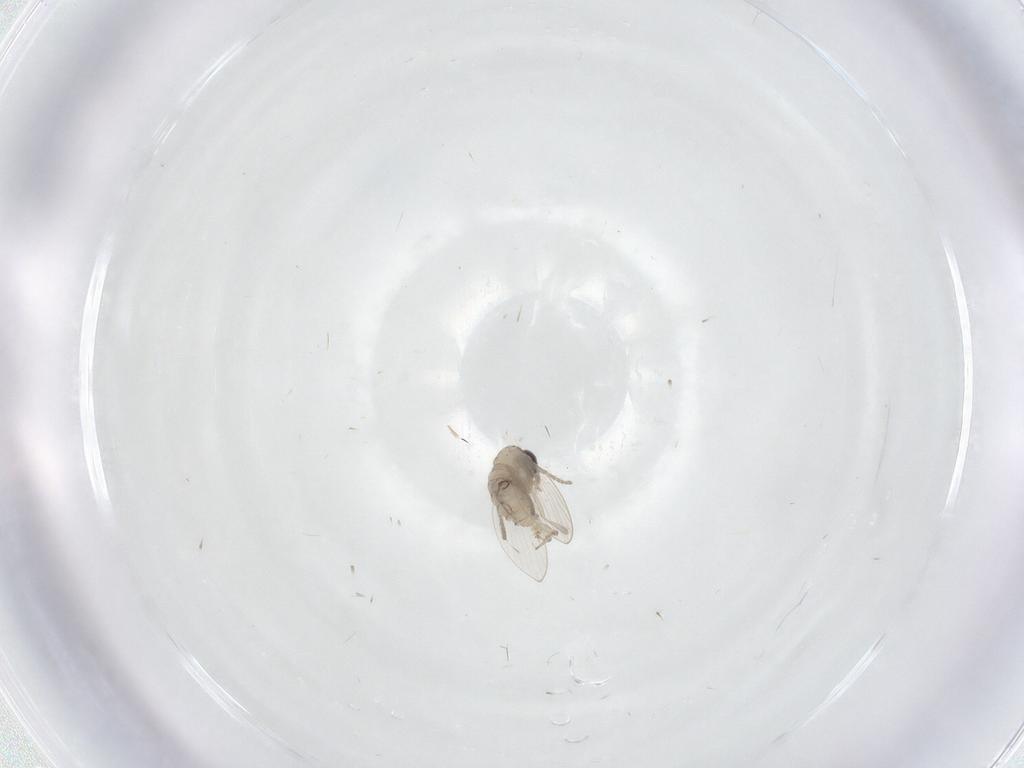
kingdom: Animalia
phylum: Arthropoda
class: Insecta
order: Diptera
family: Psychodidae
